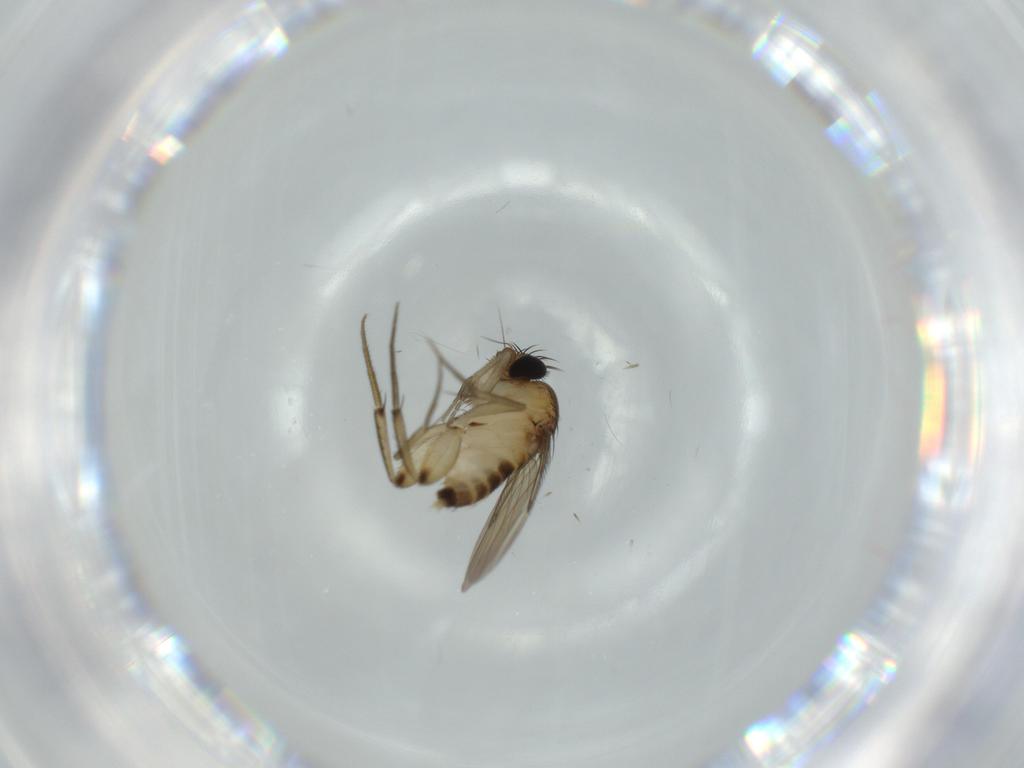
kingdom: Animalia
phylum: Arthropoda
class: Insecta
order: Diptera
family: Phoridae
